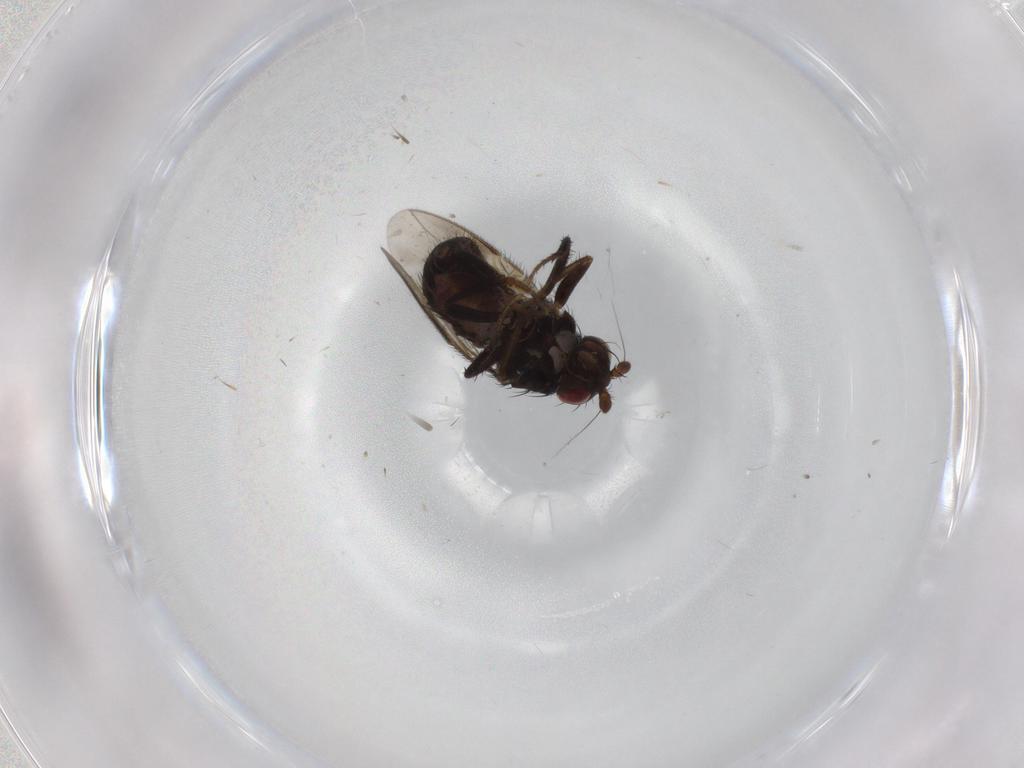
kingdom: Animalia
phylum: Arthropoda
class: Insecta
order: Diptera
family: Sphaeroceridae
